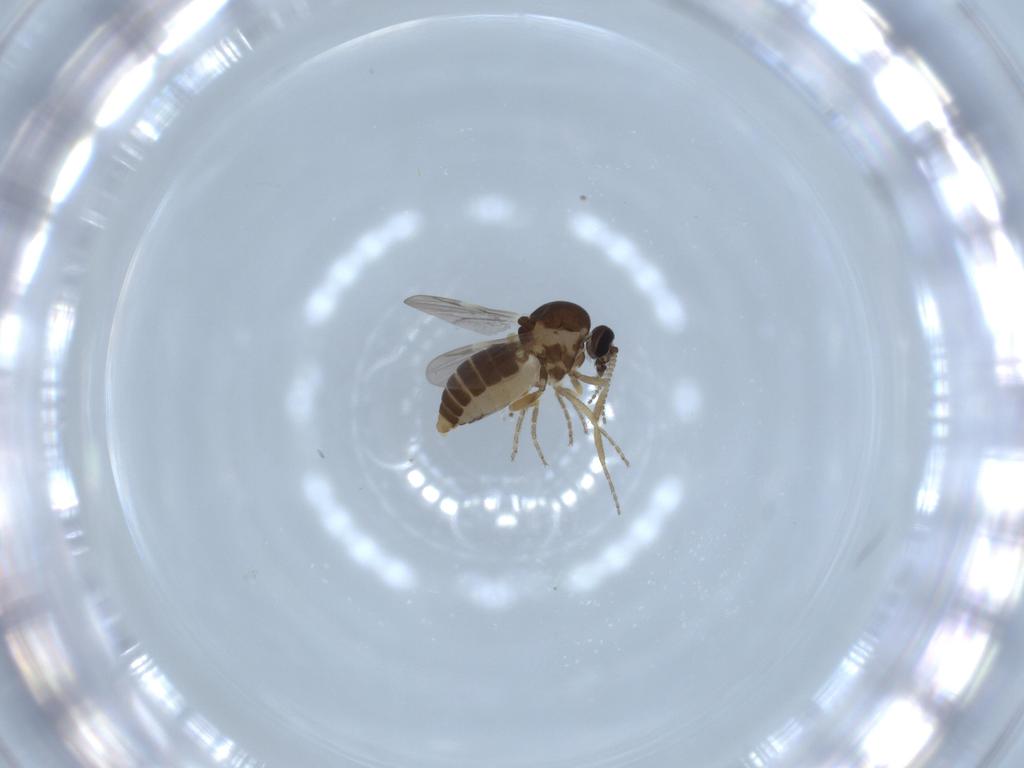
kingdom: Animalia
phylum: Arthropoda
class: Insecta
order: Diptera
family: Ceratopogonidae
